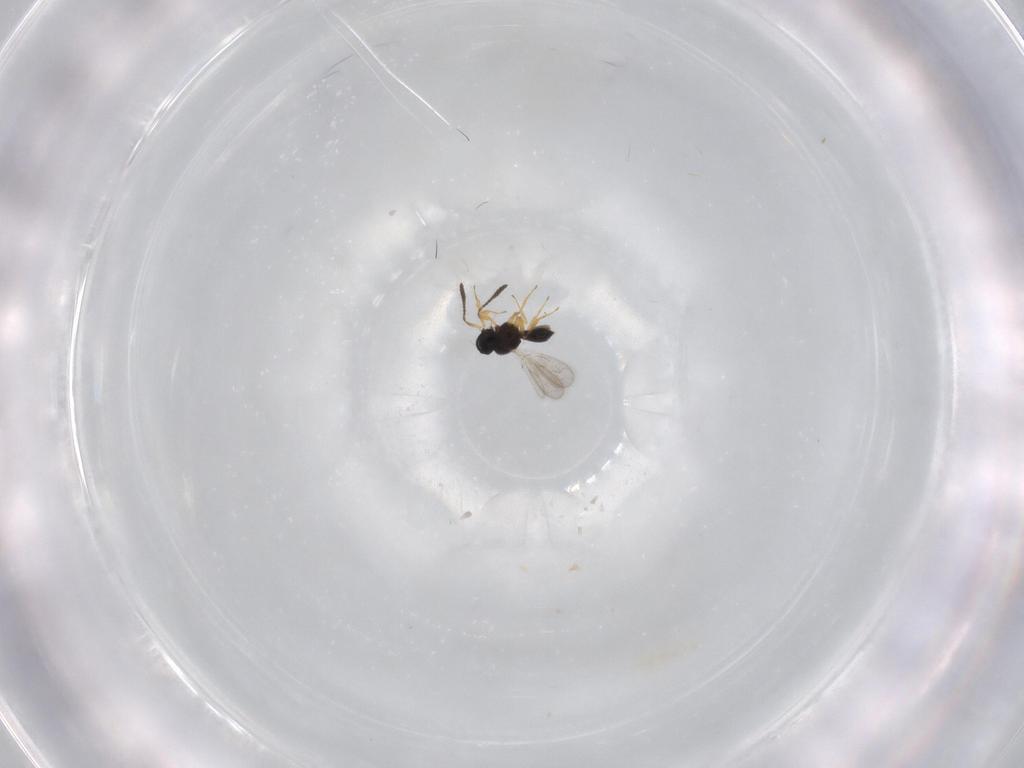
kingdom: Animalia
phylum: Arthropoda
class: Insecta
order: Hymenoptera
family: Scelionidae
